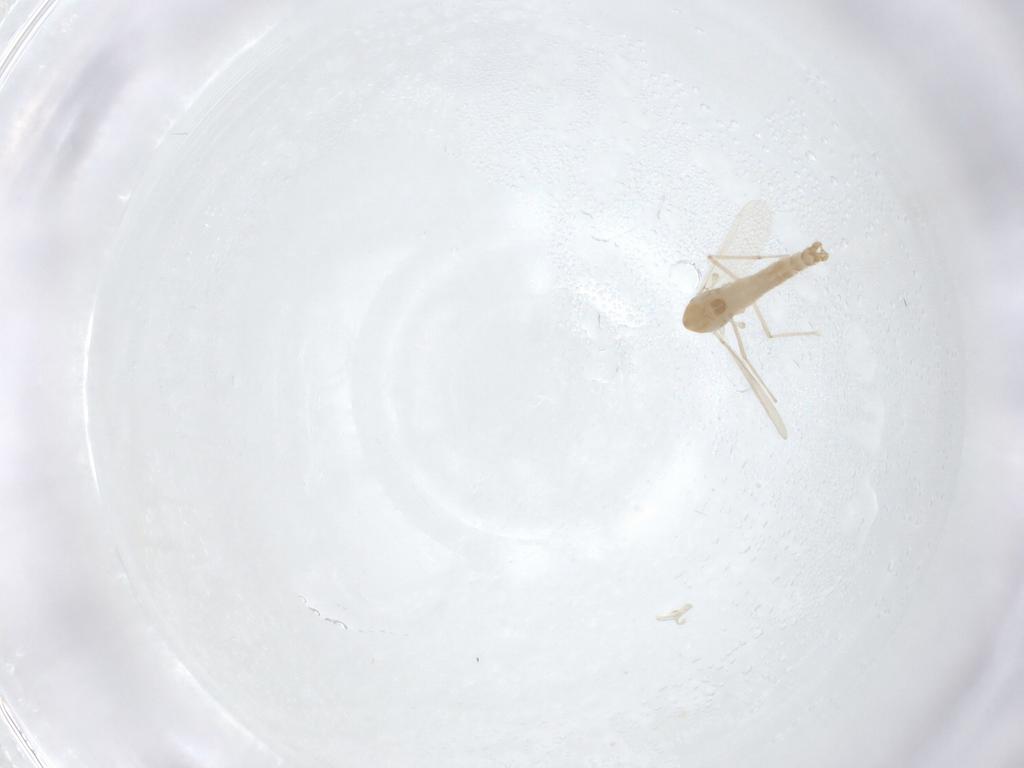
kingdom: Animalia
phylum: Arthropoda
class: Insecta
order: Diptera
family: Chironomidae
